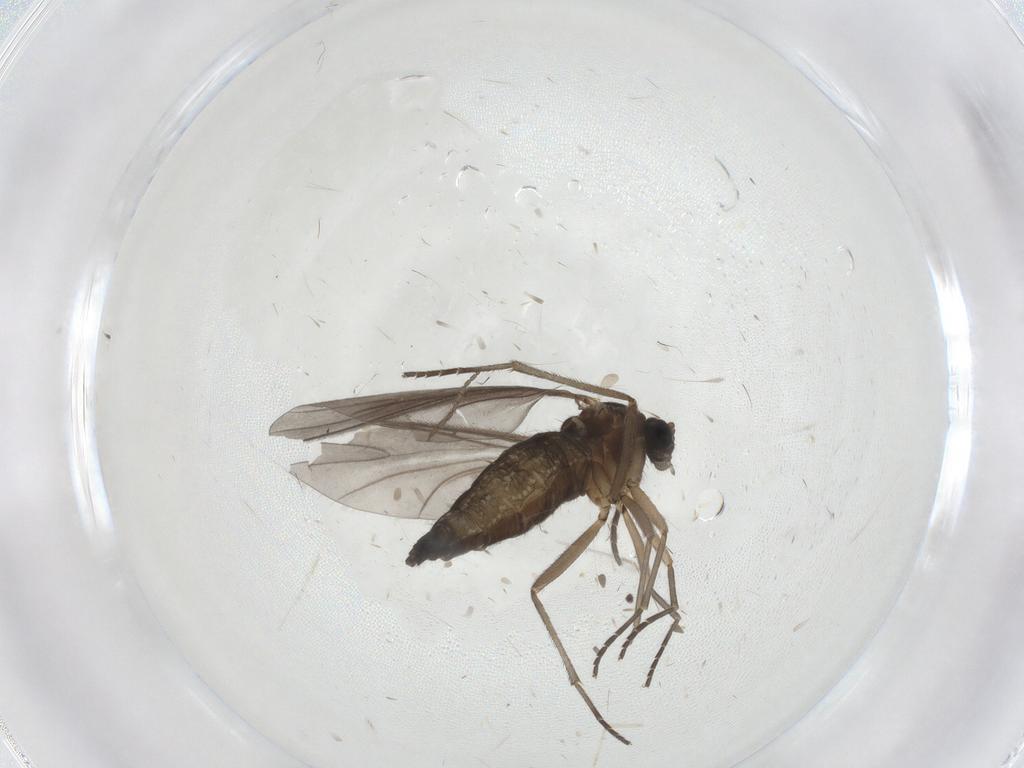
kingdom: Animalia
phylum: Arthropoda
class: Insecta
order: Diptera
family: Sciaridae
